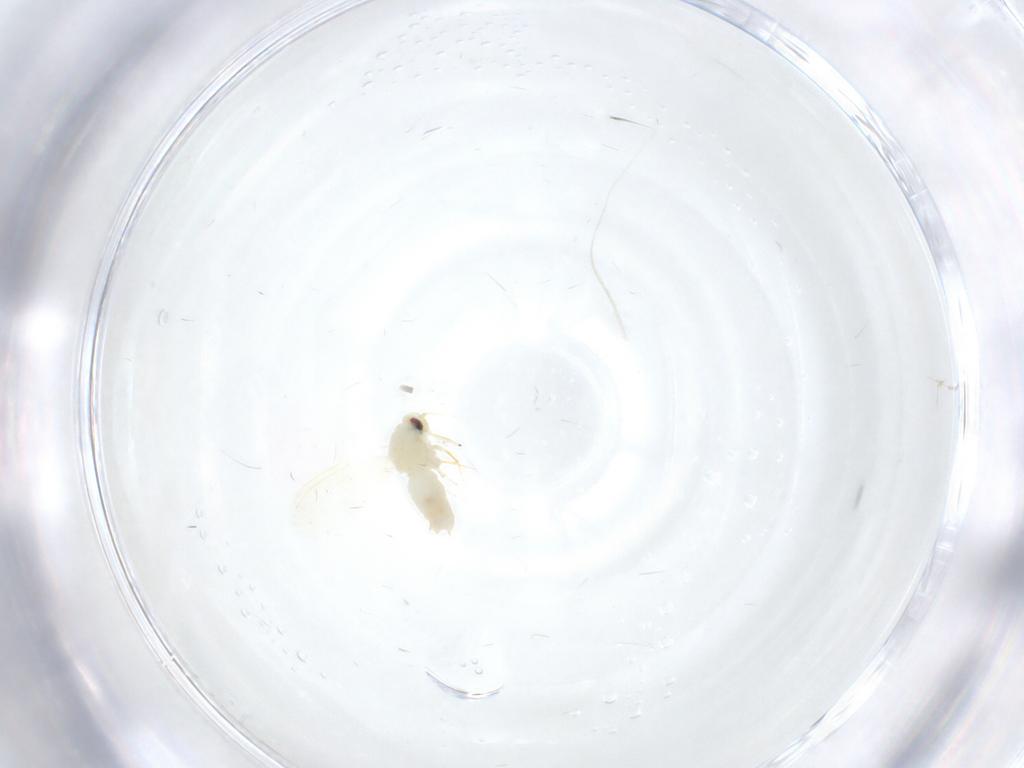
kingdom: Animalia
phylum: Arthropoda
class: Insecta
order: Hemiptera
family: Aleyrodidae
